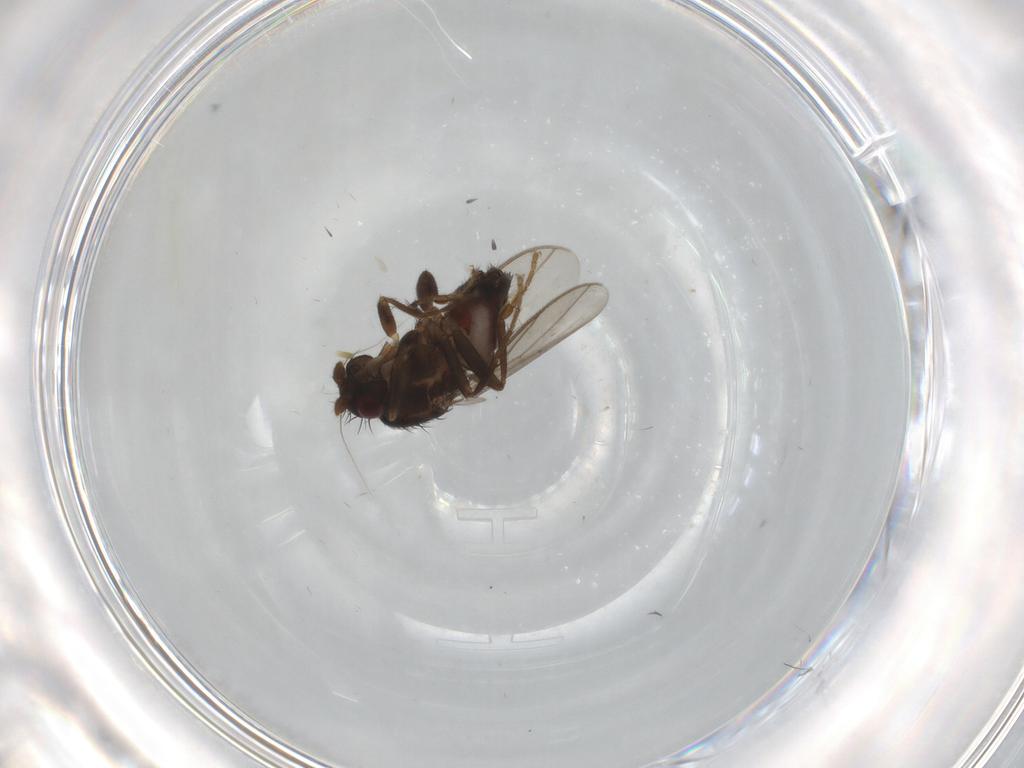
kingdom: Animalia
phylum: Arthropoda
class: Insecta
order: Diptera
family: Sphaeroceridae
